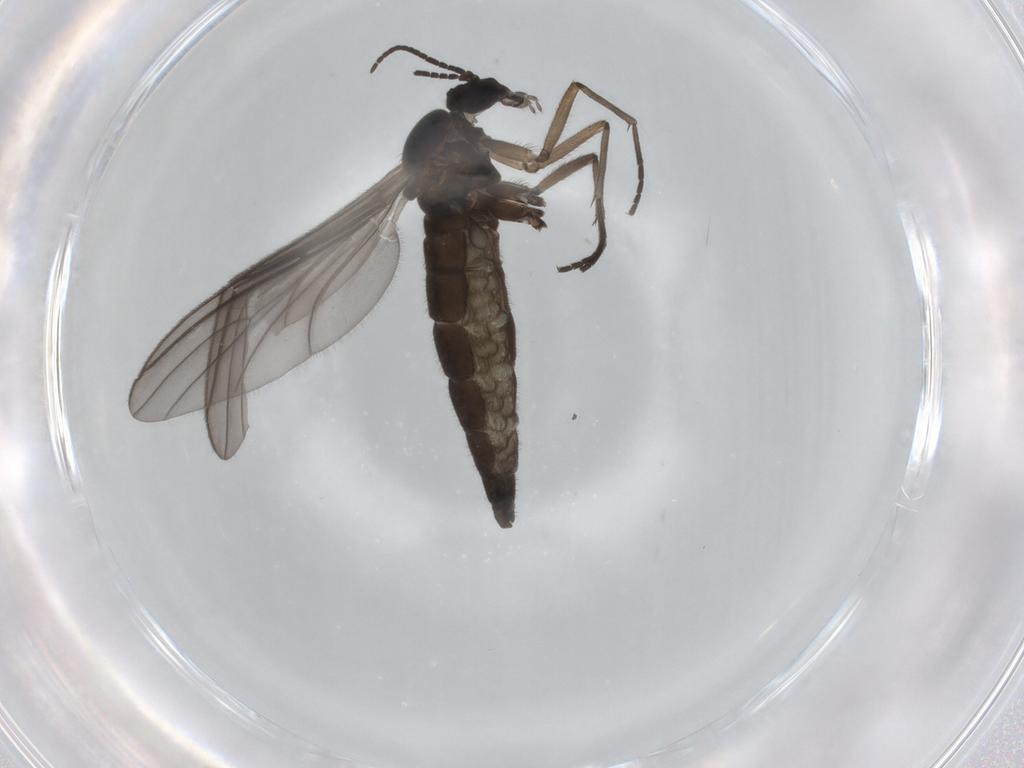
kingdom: Animalia
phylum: Arthropoda
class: Insecta
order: Diptera
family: Sciaridae
